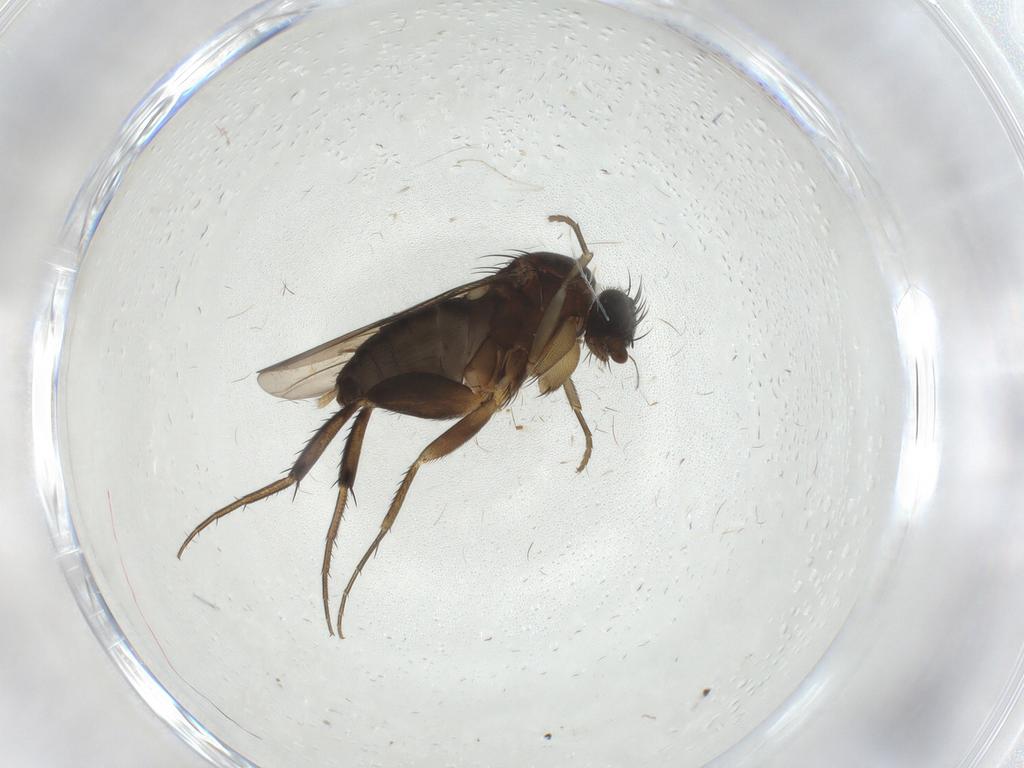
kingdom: Animalia
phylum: Arthropoda
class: Insecta
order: Diptera
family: Phoridae
